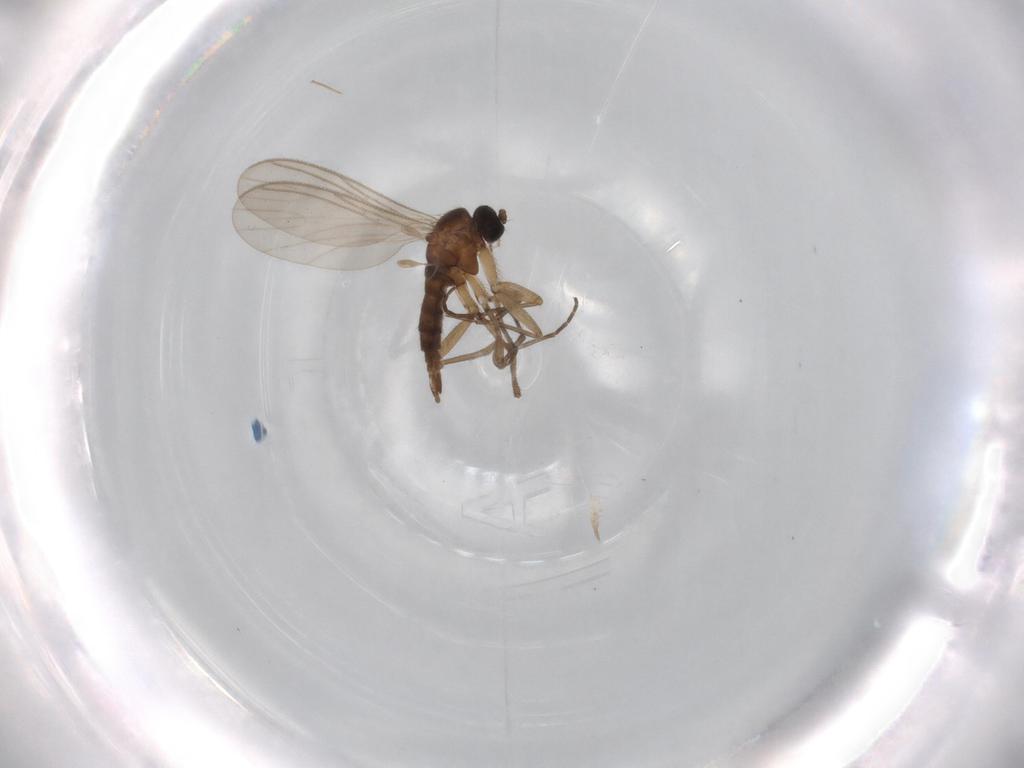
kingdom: Animalia
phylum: Arthropoda
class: Insecta
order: Diptera
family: Drosophilidae
